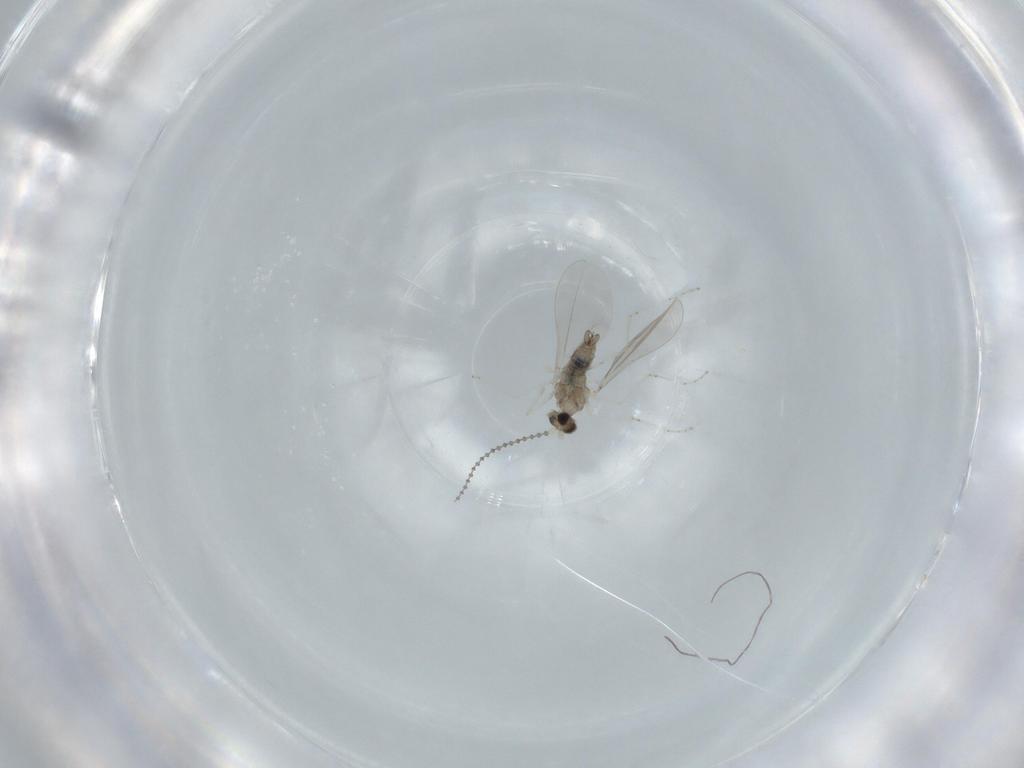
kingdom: Animalia
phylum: Arthropoda
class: Insecta
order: Diptera
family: Cecidomyiidae
